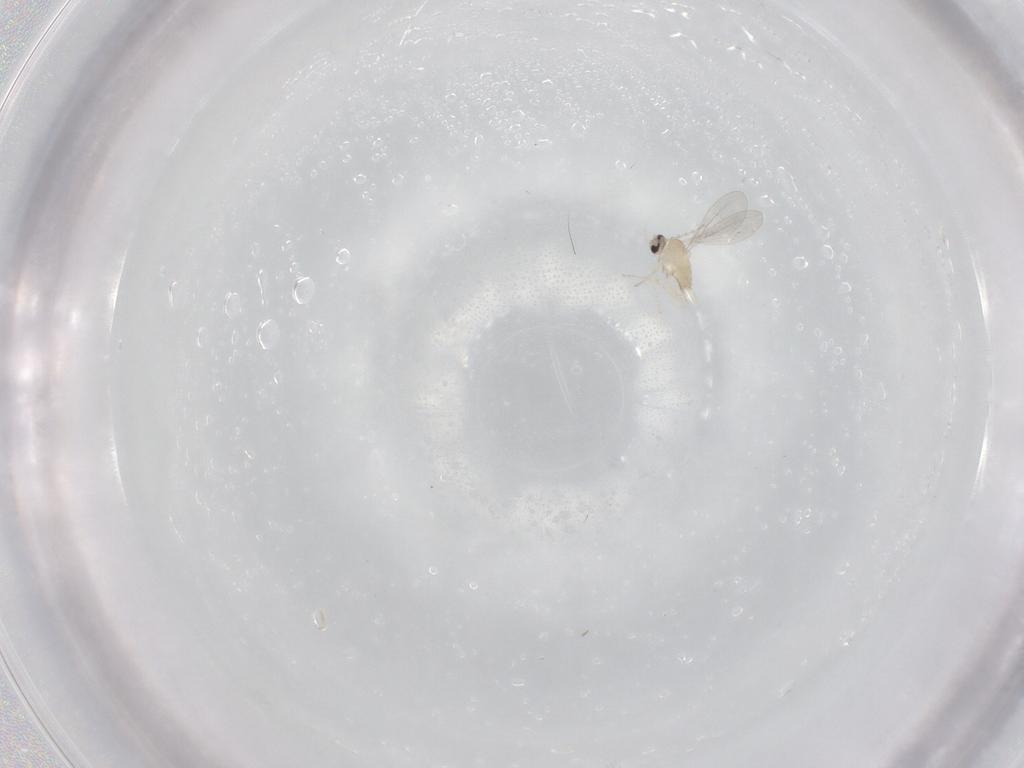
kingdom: Animalia
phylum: Arthropoda
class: Insecta
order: Diptera
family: Cecidomyiidae
